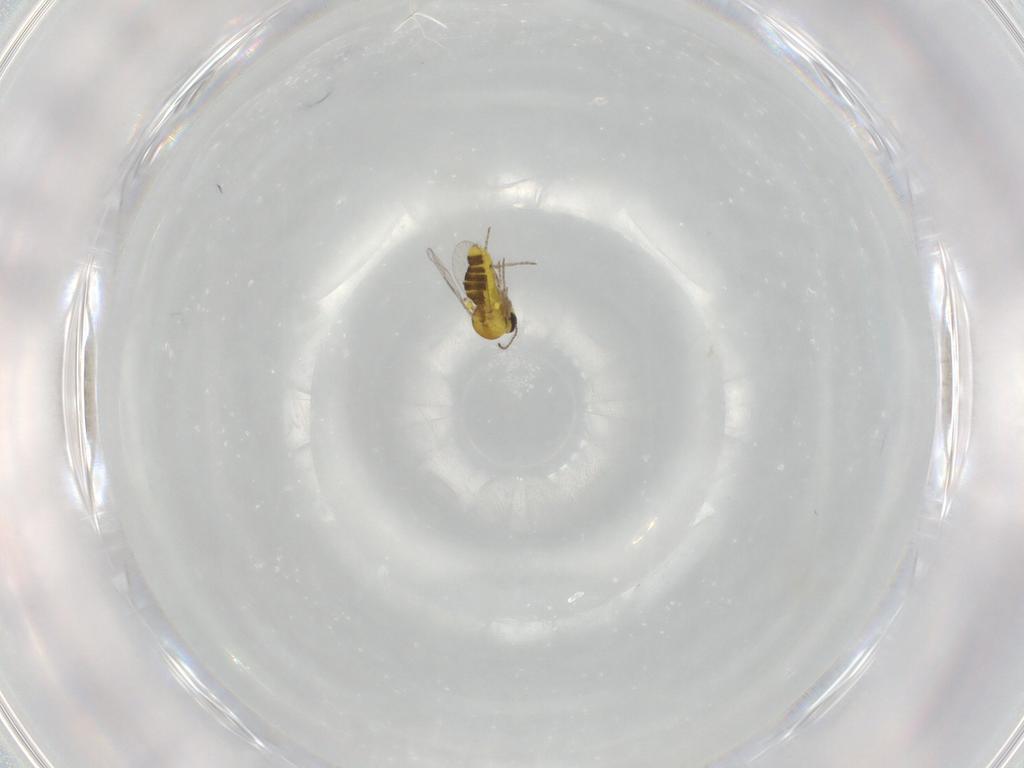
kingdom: Animalia
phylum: Arthropoda
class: Insecta
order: Diptera
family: Ceratopogonidae
